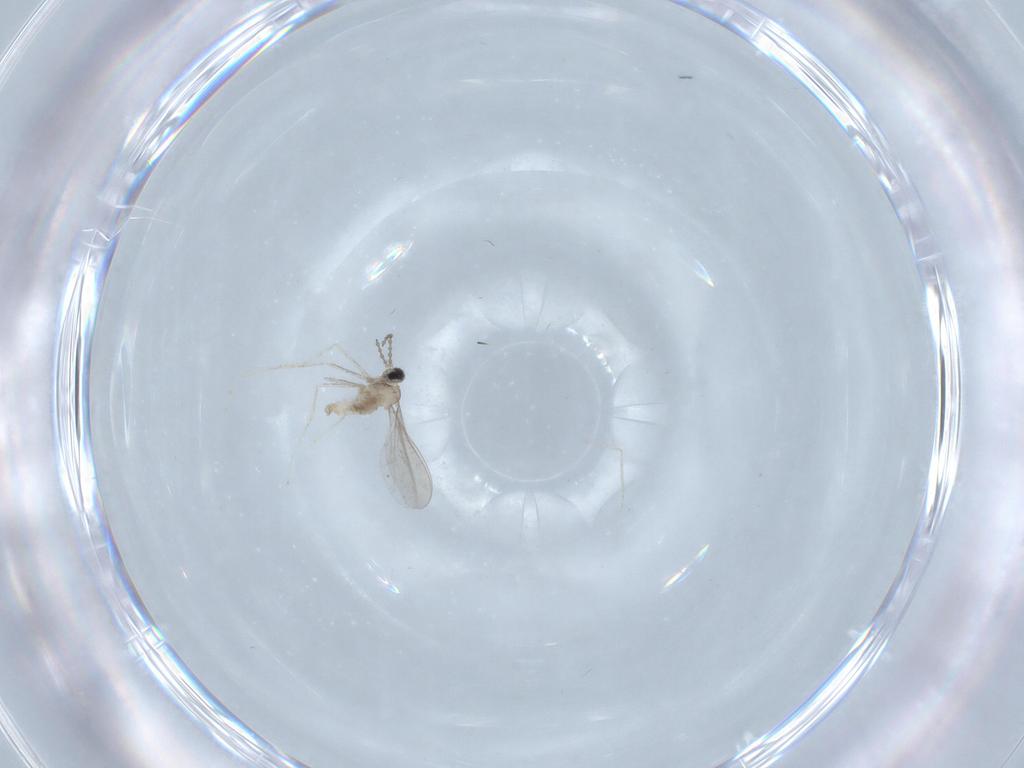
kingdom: Animalia
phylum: Arthropoda
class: Insecta
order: Diptera
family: Cecidomyiidae
